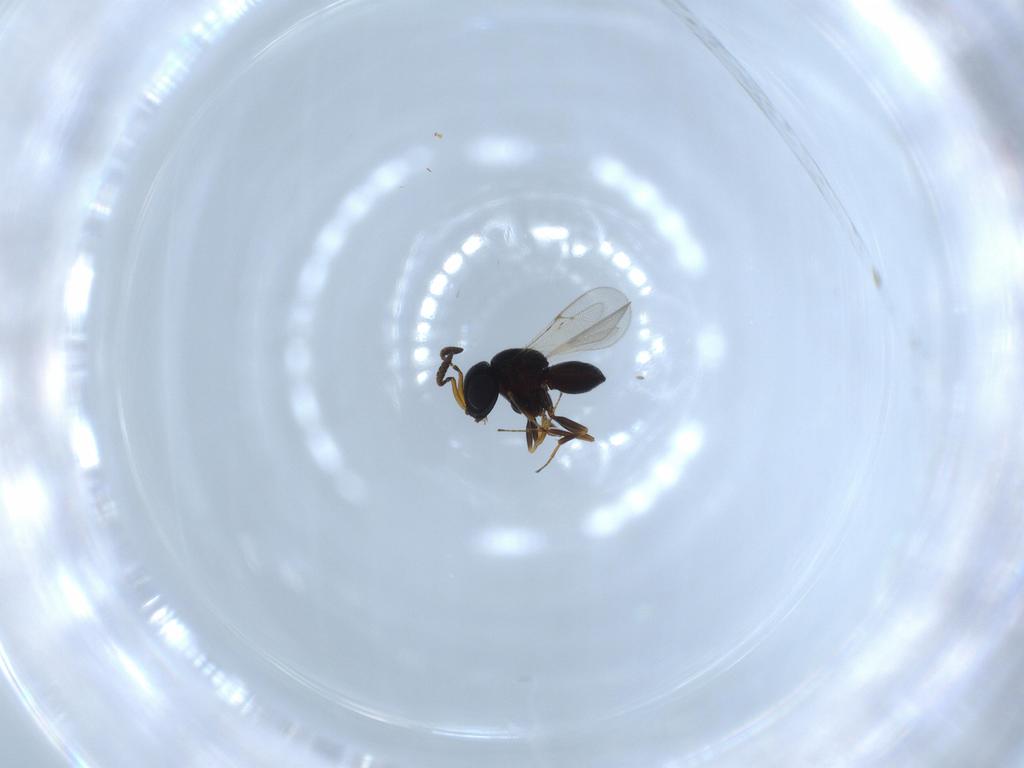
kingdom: Animalia
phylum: Arthropoda
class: Insecta
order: Hymenoptera
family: Scelionidae
